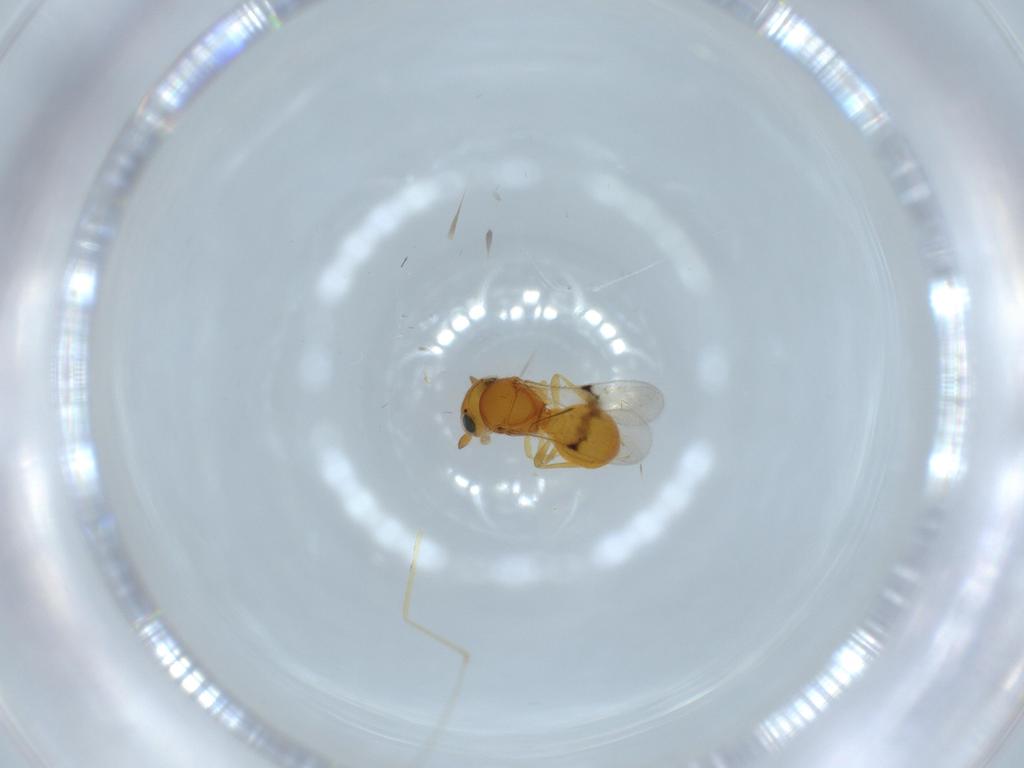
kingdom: Animalia
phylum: Arthropoda
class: Insecta
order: Hymenoptera
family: Scelionidae
